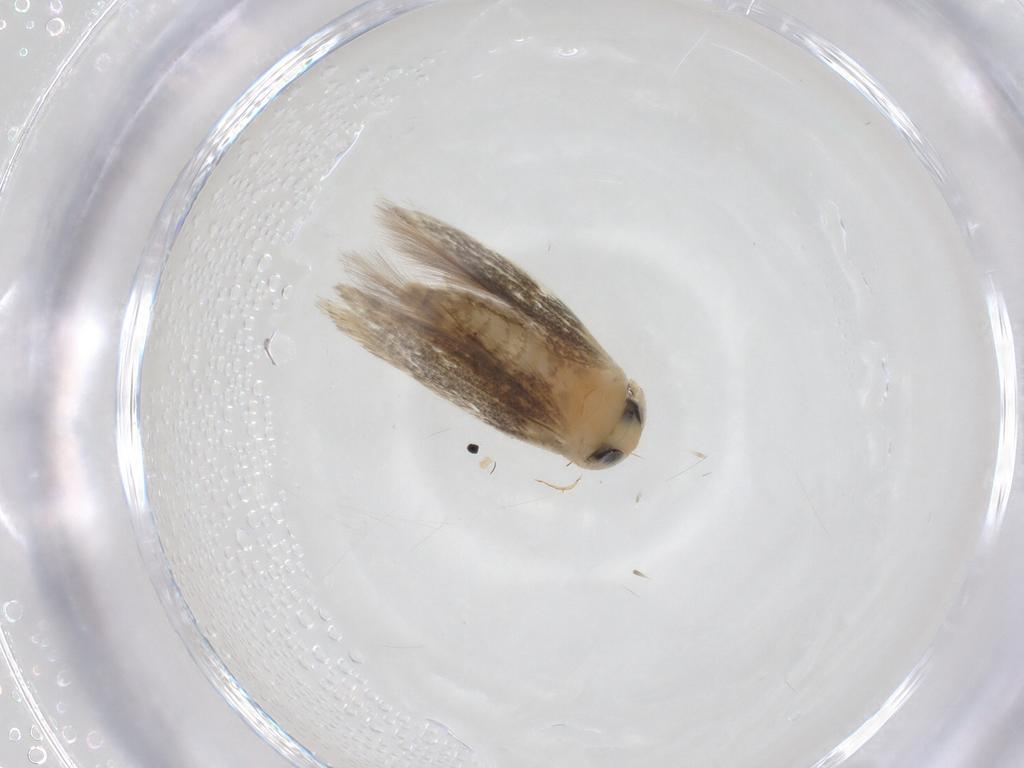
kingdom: Animalia
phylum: Arthropoda
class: Insecta
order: Lepidoptera
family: Opostegidae
